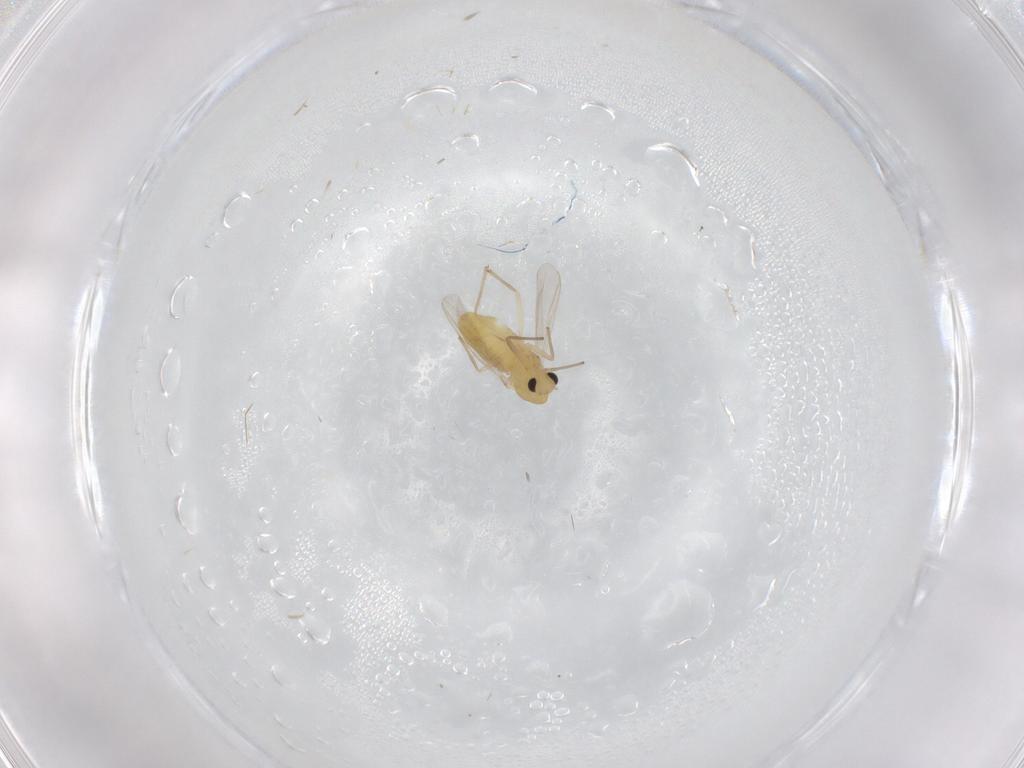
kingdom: Animalia
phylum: Arthropoda
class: Insecta
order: Diptera
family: Chironomidae
